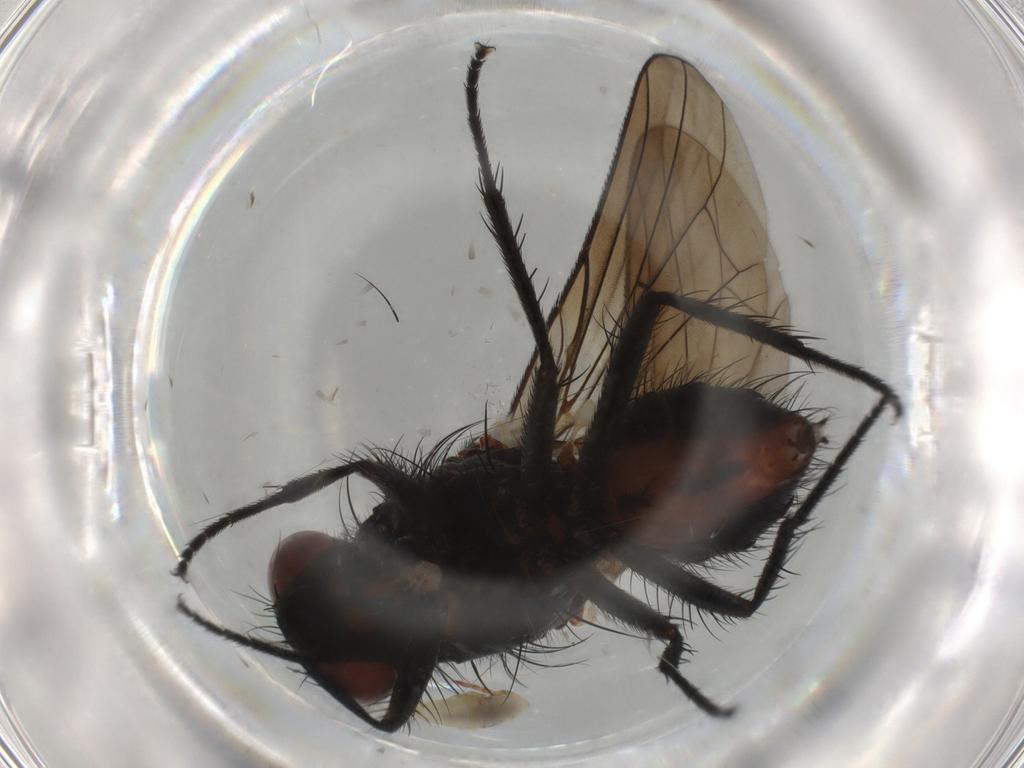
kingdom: Animalia
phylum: Arthropoda
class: Insecta
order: Diptera
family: Anthomyiidae
